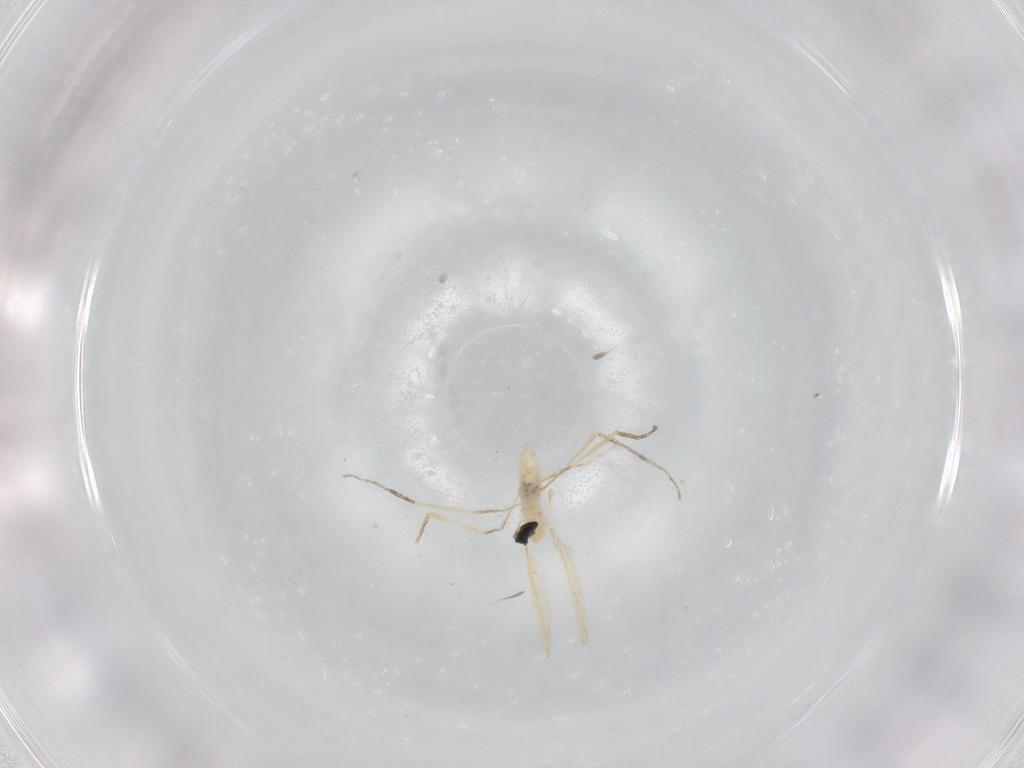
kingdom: Animalia
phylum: Arthropoda
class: Insecta
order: Diptera
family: Cecidomyiidae
